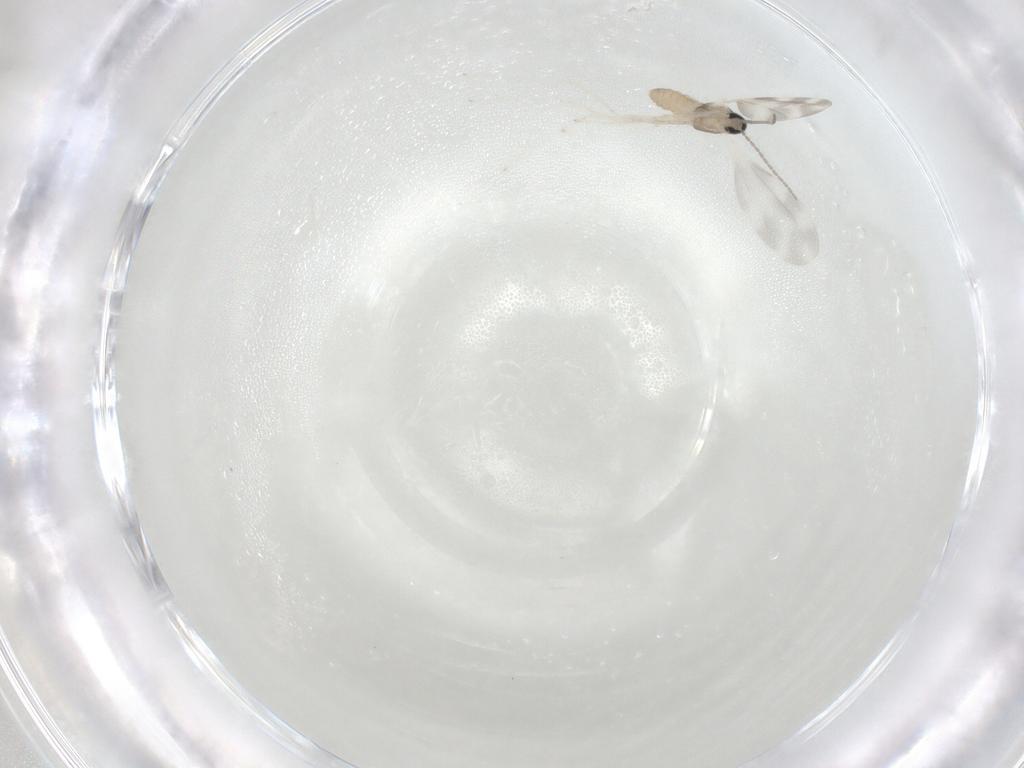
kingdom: Animalia
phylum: Arthropoda
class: Insecta
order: Diptera
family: Cecidomyiidae
